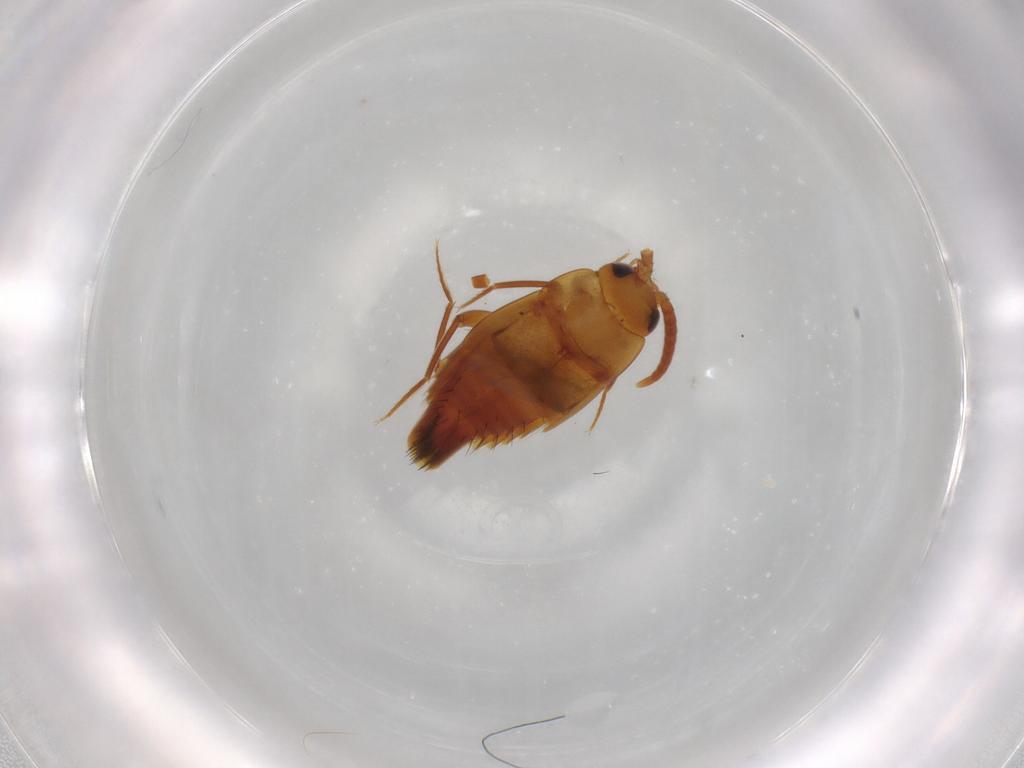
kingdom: Animalia
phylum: Arthropoda
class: Insecta
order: Coleoptera
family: Staphylinidae
